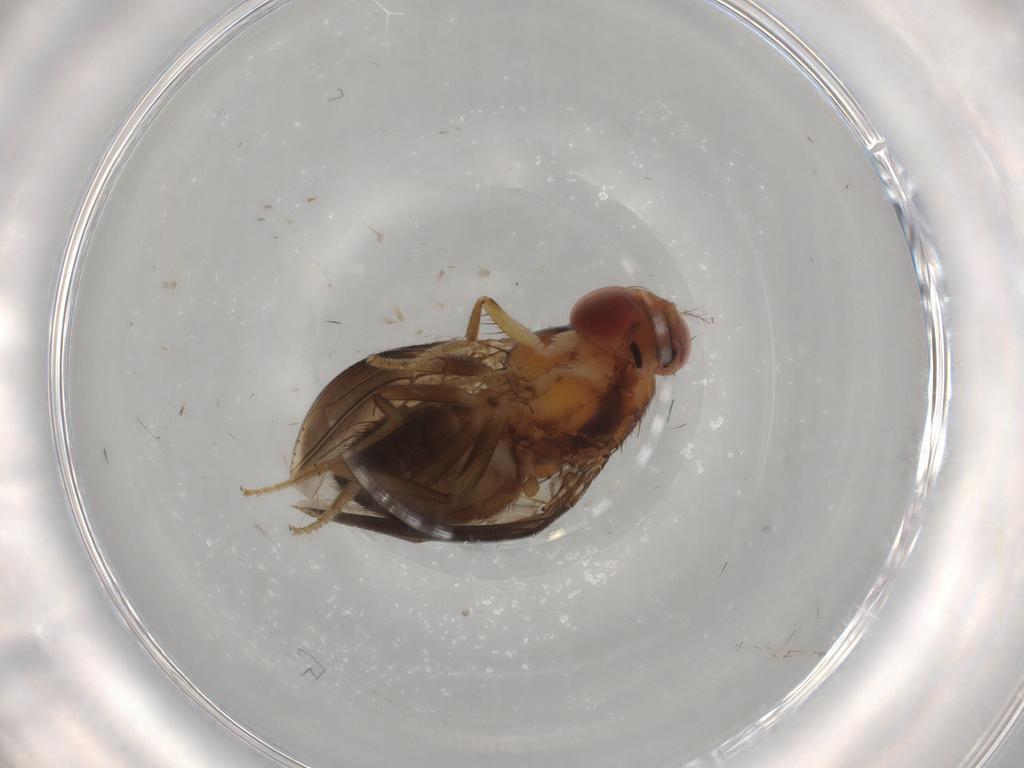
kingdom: Animalia
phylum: Arthropoda
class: Insecta
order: Diptera
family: Drosophilidae
